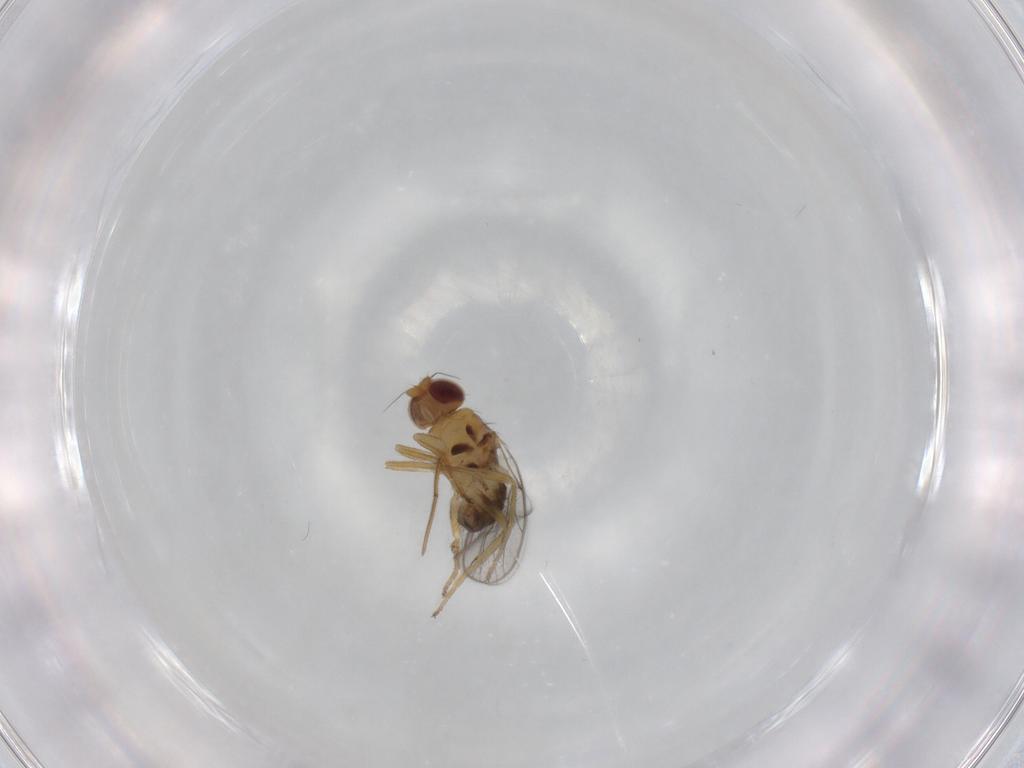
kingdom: Animalia
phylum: Arthropoda
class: Insecta
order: Diptera
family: Chloropidae
